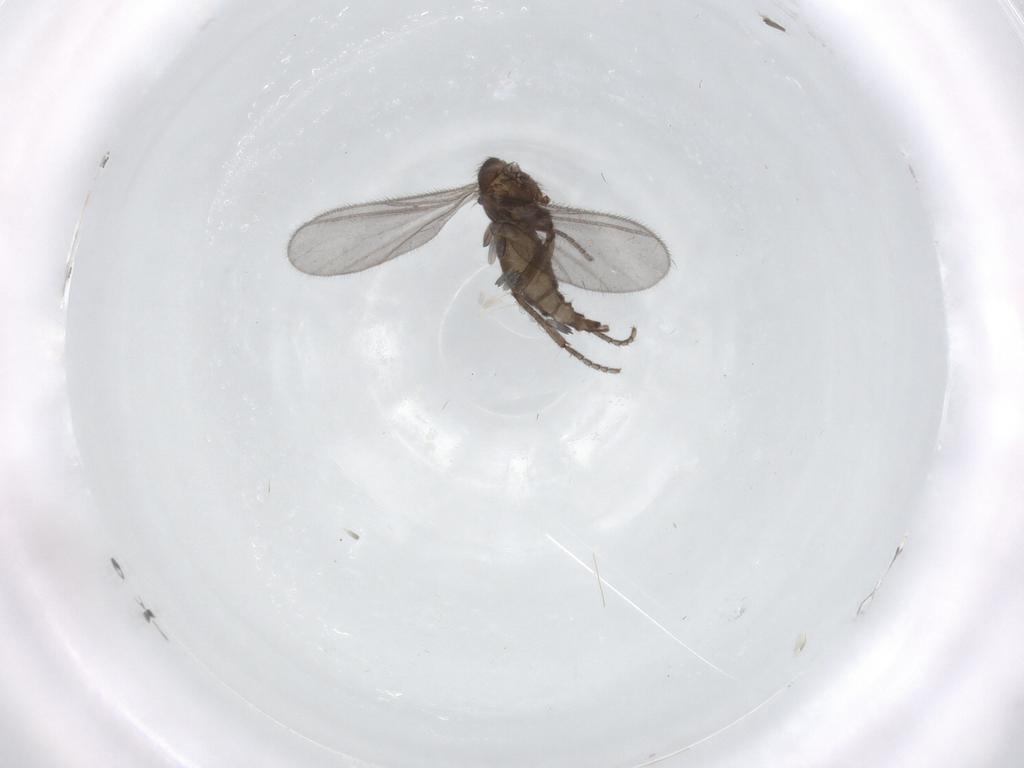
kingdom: Animalia
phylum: Arthropoda
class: Insecta
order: Diptera
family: Sciaridae
